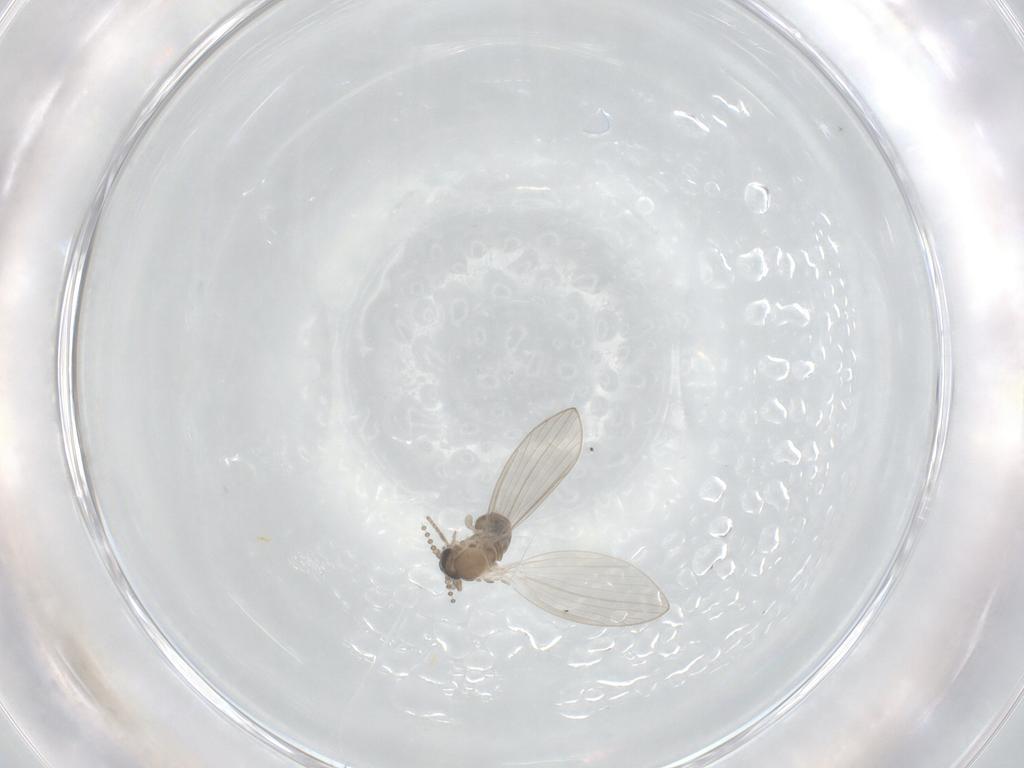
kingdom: Animalia
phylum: Arthropoda
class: Insecta
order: Diptera
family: Psychodidae
